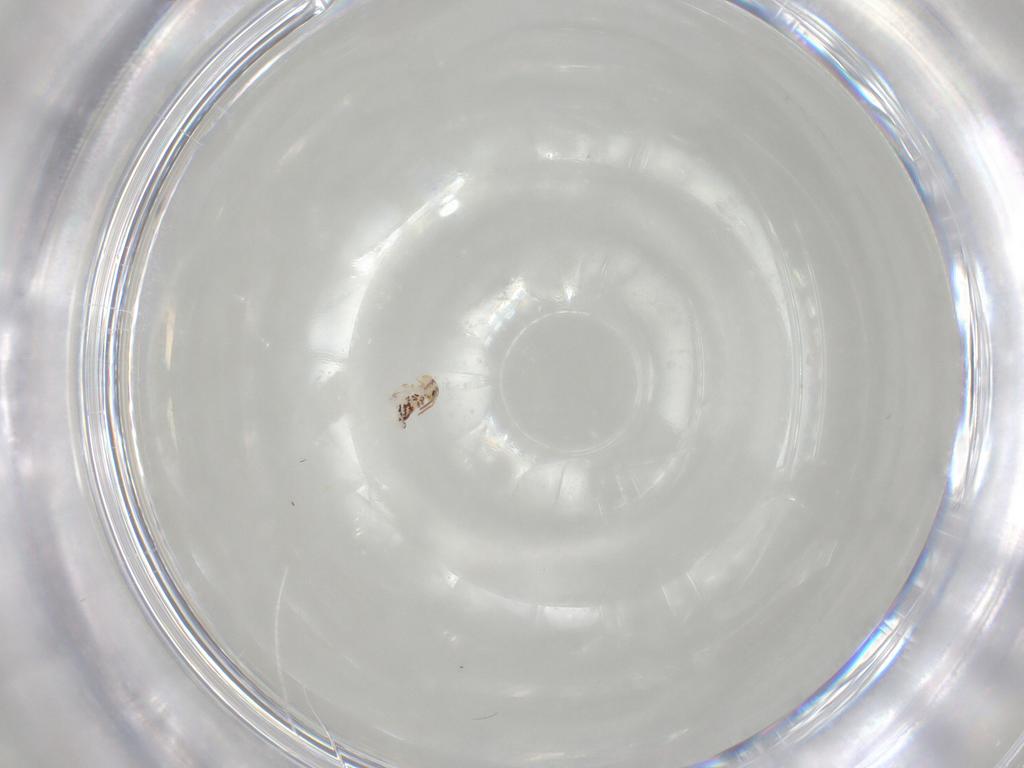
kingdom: Animalia
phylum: Arthropoda
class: Collembola
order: Symphypleona
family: Bourletiellidae
